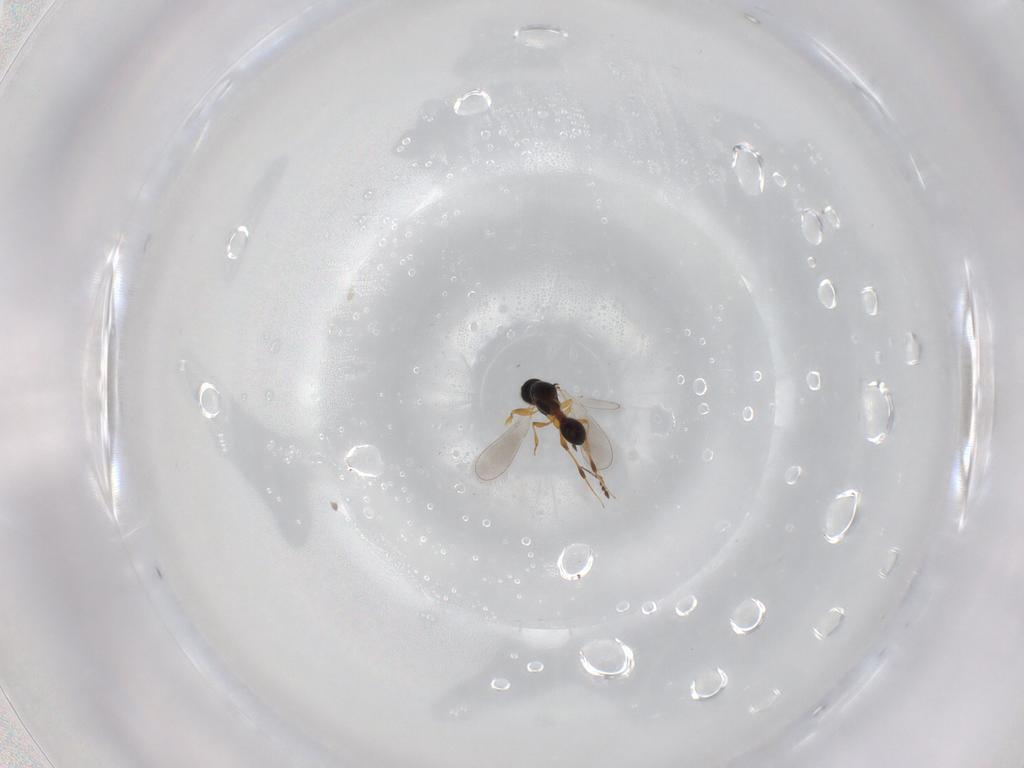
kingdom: Animalia
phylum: Arthropoda
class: Insecta
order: Hymenoptera
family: Platygastridae
